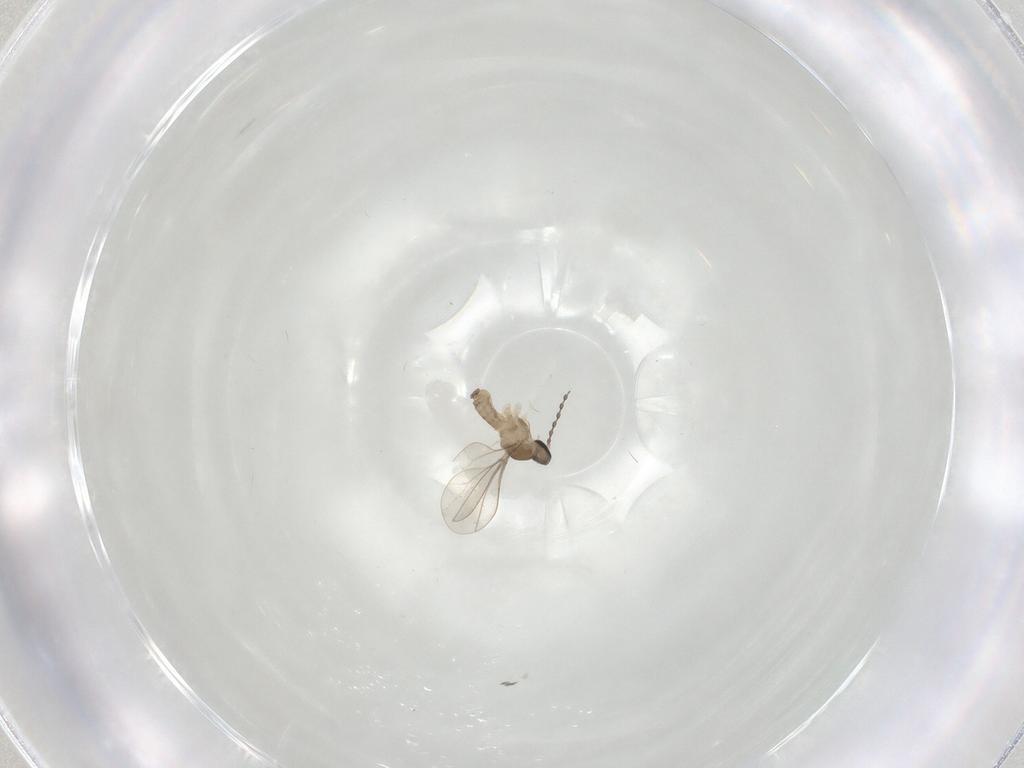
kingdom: Animalia
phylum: Arthropoda
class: Insecta
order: Diptera
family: Cecidomyiidae
